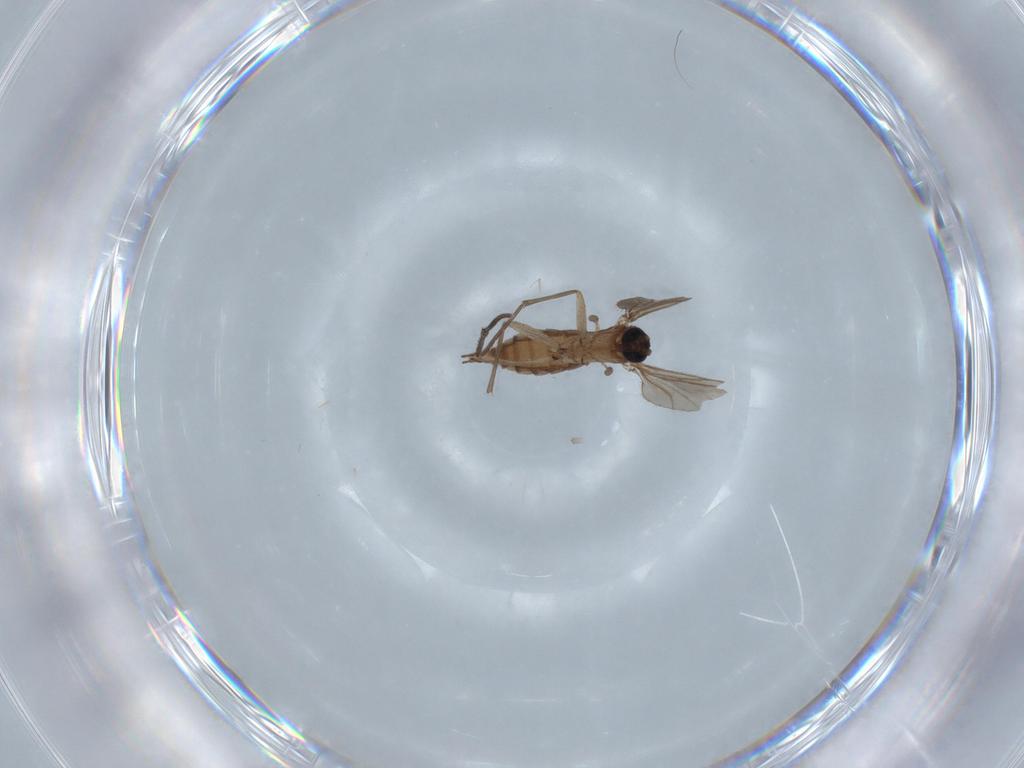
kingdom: Animalia
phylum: Arthropoda
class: Insecta
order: Diptera
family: Sciaridae
